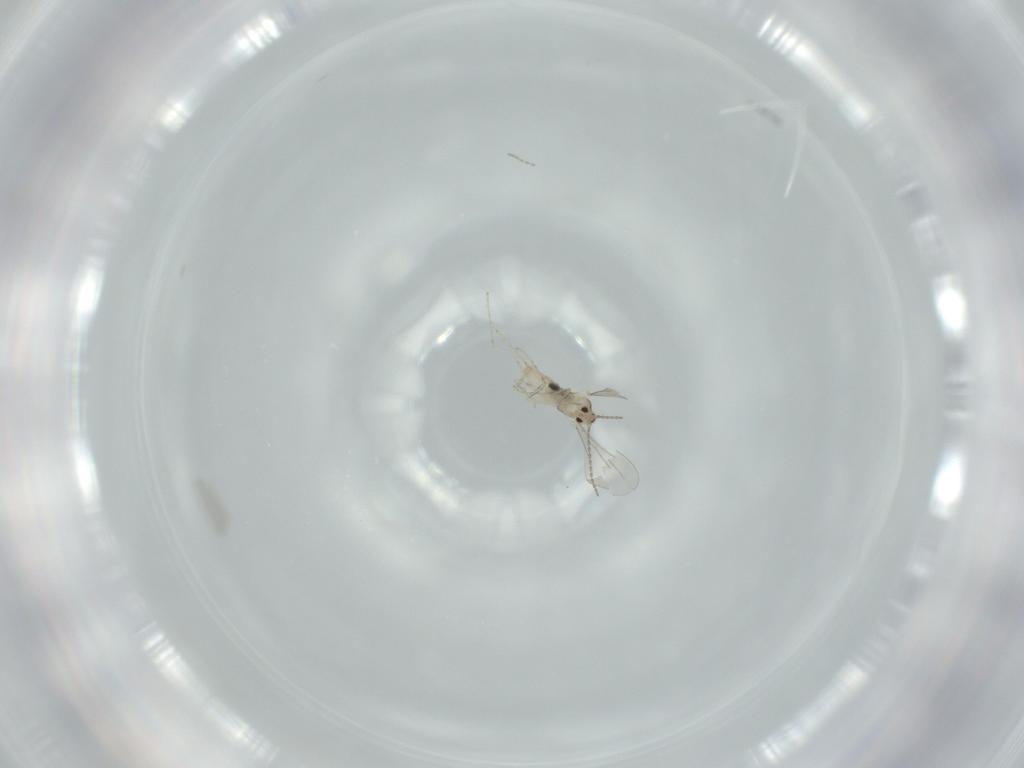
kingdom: Animalia
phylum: Arthropoda
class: Insecta
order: Diptera
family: Cecidomyiidae
